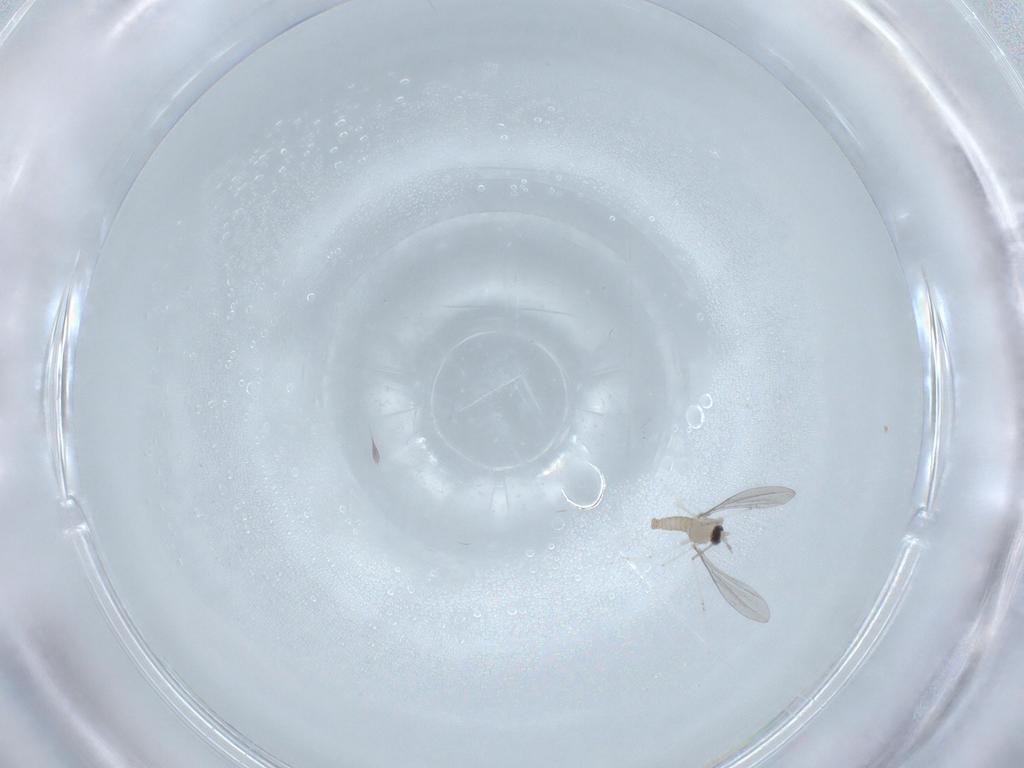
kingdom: Animalia
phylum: Arthropoda
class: Insecta
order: Diptera
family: Cecidomyiidae
